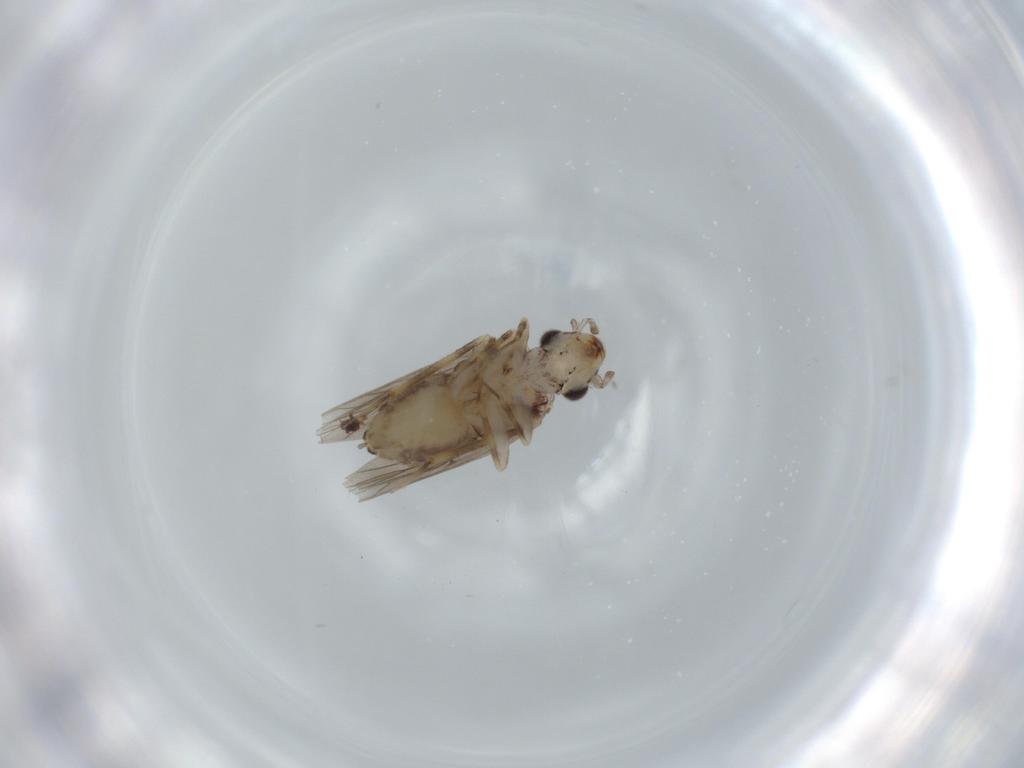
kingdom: Animalia
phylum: Arthropoda
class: Insecta
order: Psocodea
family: Lepidopsocidae
